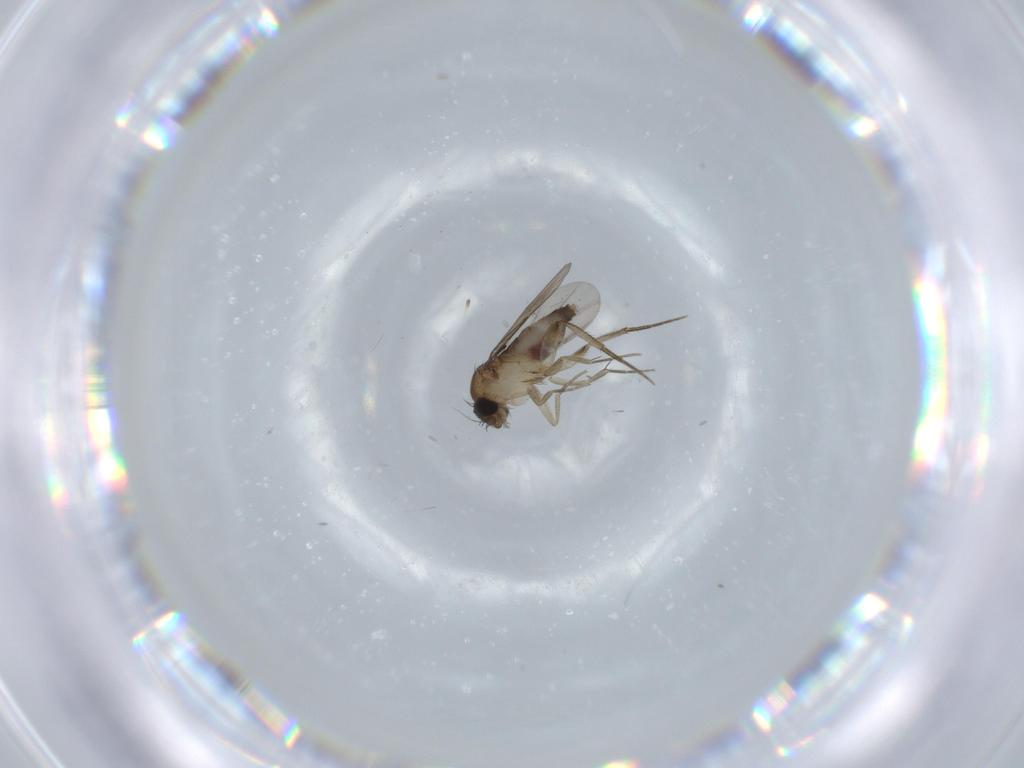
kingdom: Animalia
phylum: Arthropoda
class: Insecta
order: Diptera
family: Phoridae
